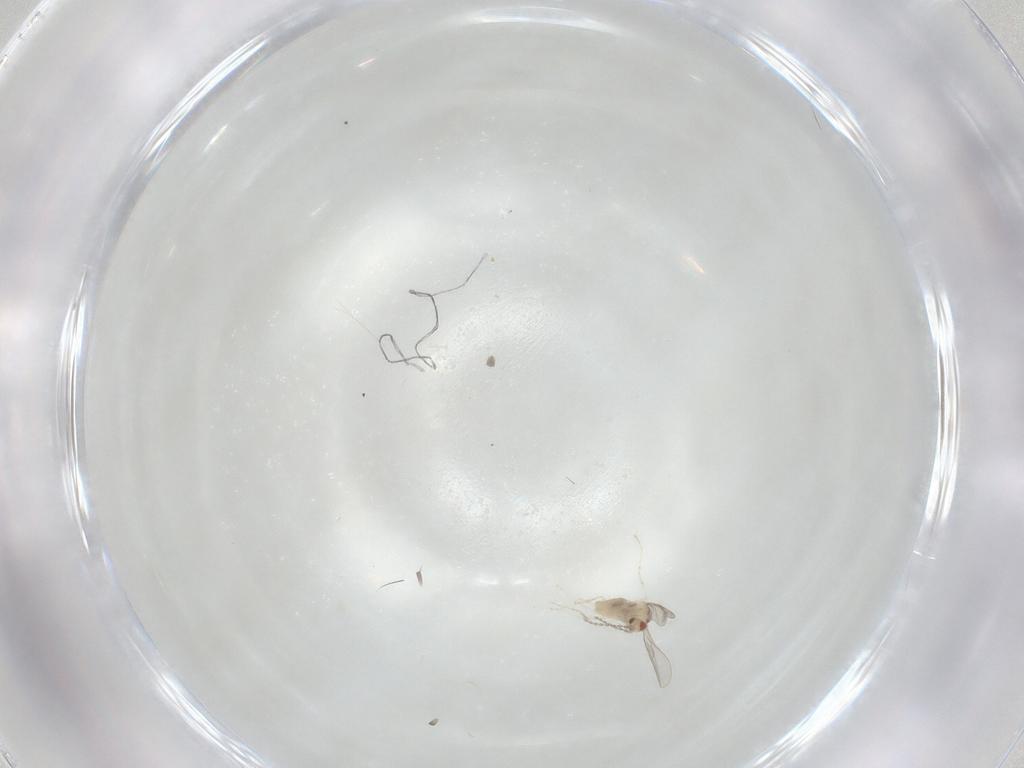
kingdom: Animalia
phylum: Arthropoda
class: Insecta
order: Diptera
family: Cecidomyiidae
